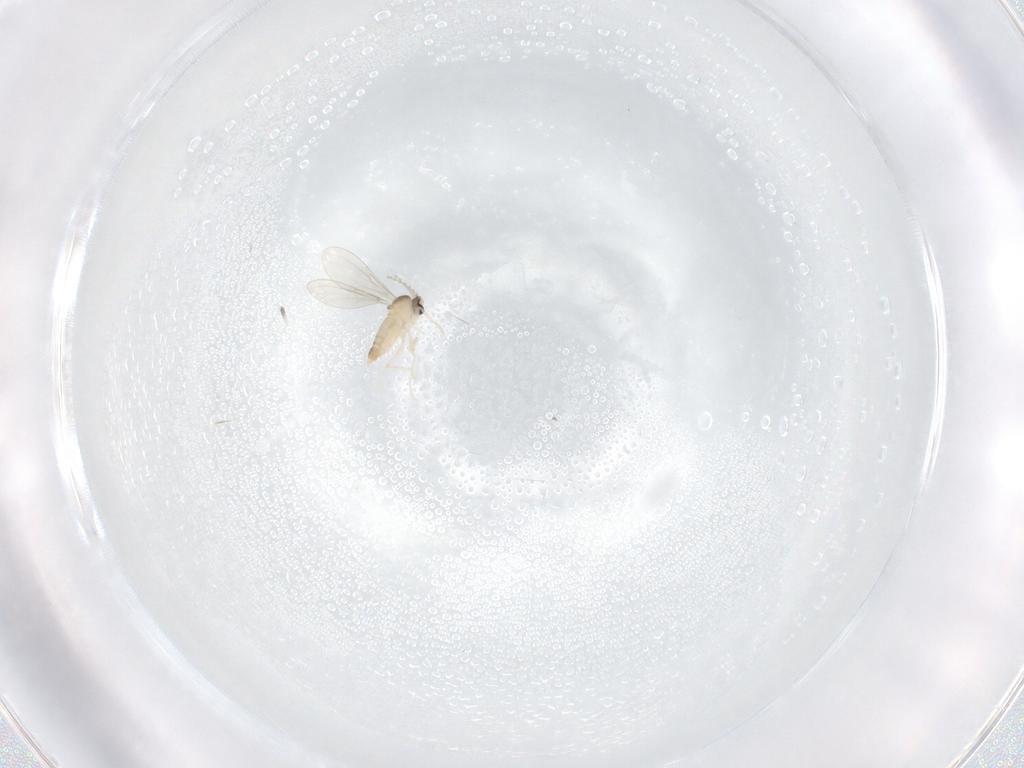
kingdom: Animalia
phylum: Arthropoda
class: Insecta
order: Diptera
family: Cecidomyiidae
